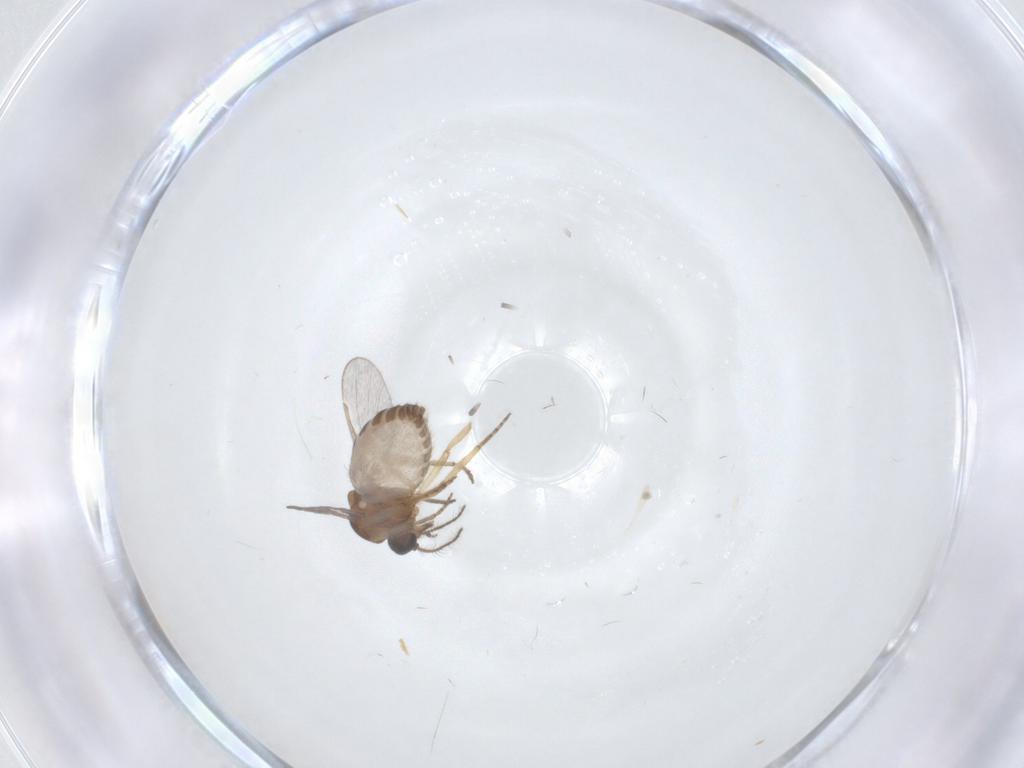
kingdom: Animalia
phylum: Arthropoda
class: Insecta
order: Diptera
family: Ceratopogonidae
